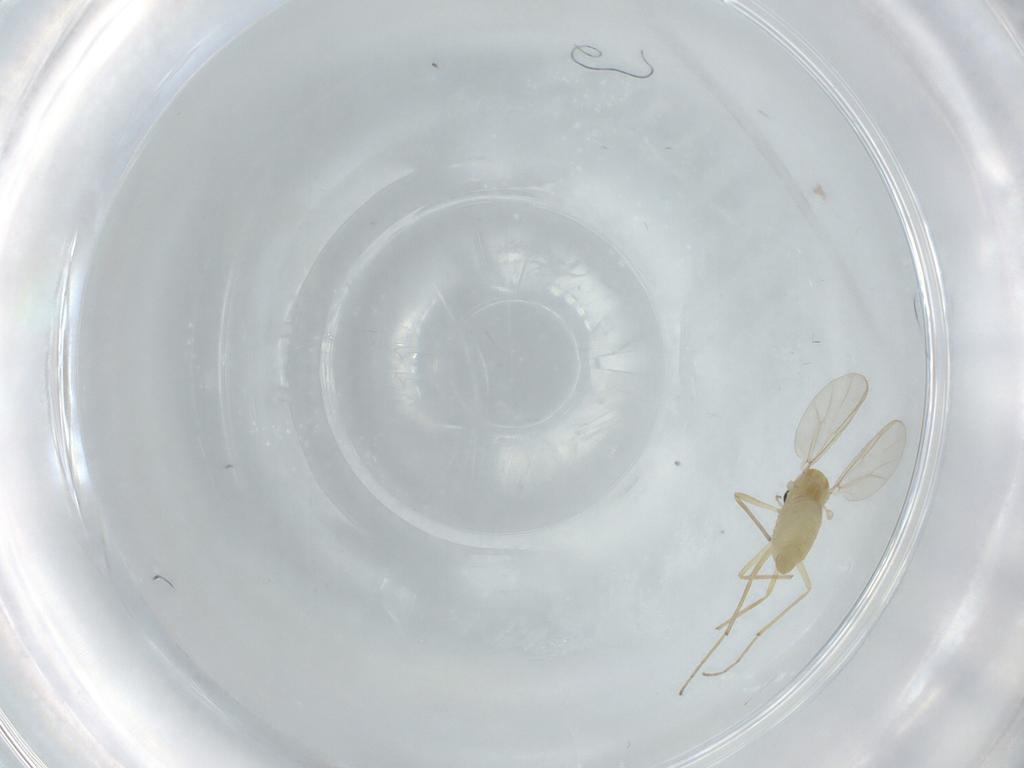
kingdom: Animalia
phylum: Arthropoda
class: Insecta
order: Diptera
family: Chironomidae
